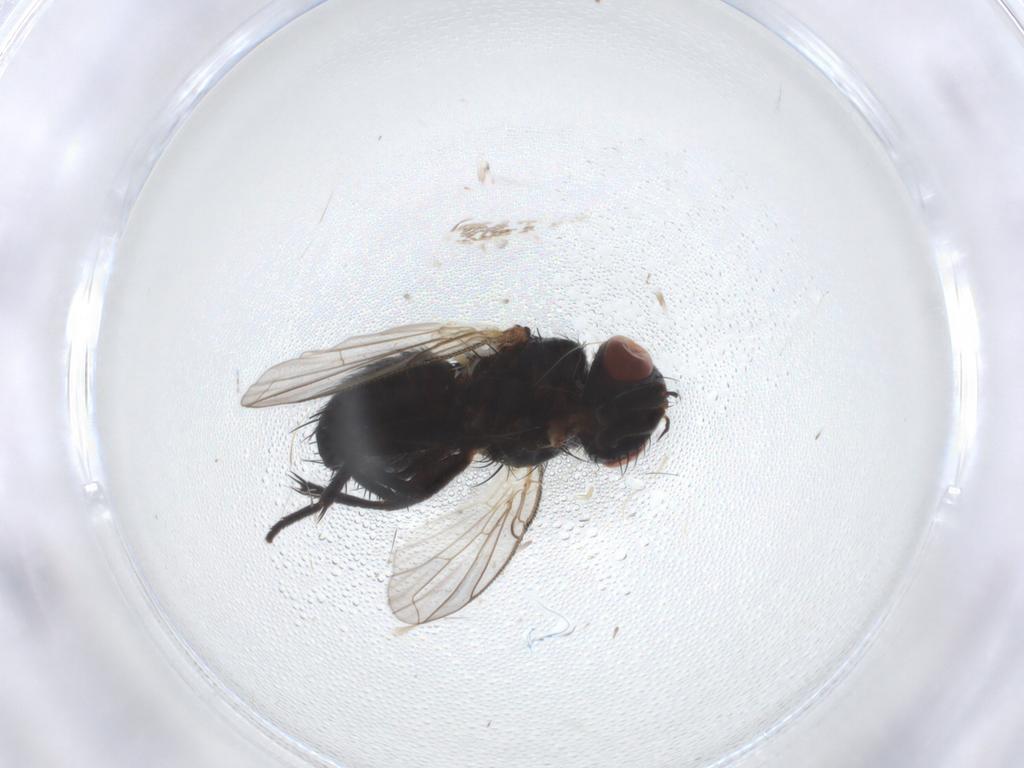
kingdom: Animalia
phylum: Arthropoda
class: Insecta
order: Diptera
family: Tachinidae
